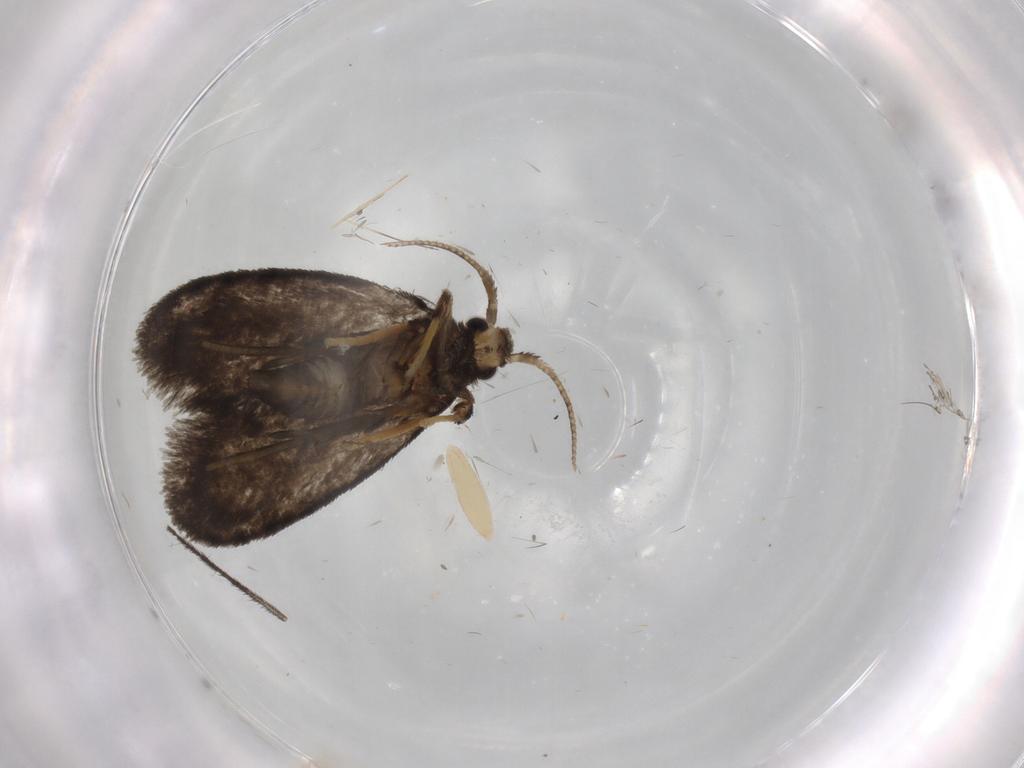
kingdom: Animalia
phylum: Arthropoda
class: Insecta
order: Lepidoptera
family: Psychidae
